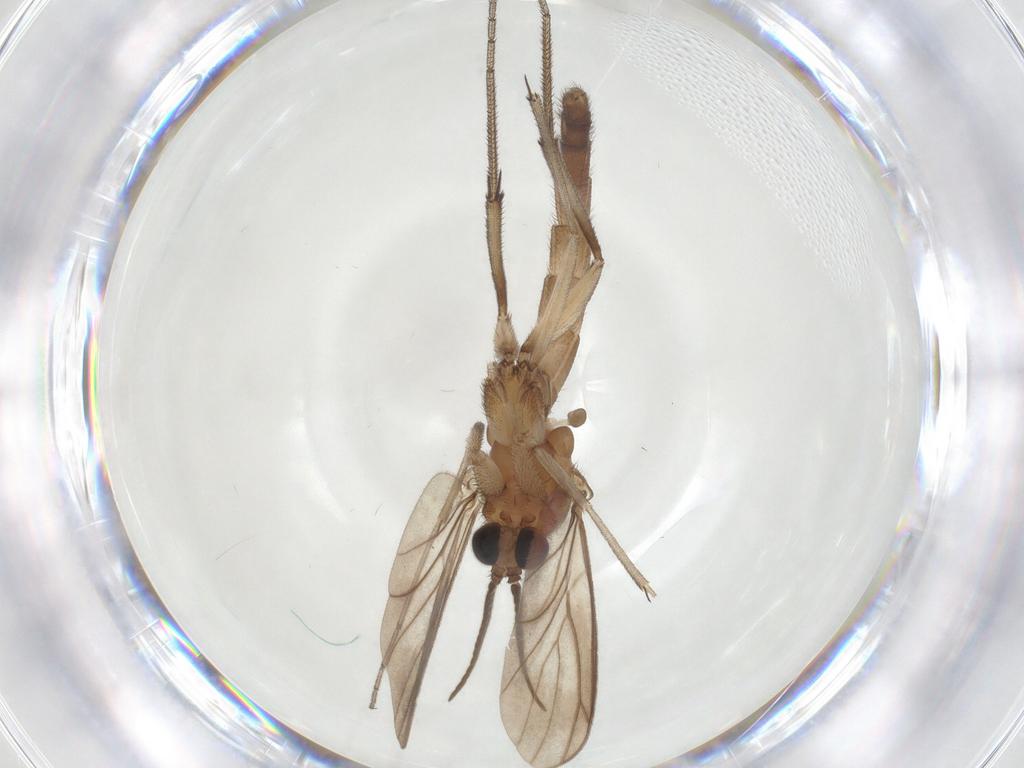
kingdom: Animalia
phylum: Arthropoda
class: Insecta
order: Diptera
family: Keroplatidae
